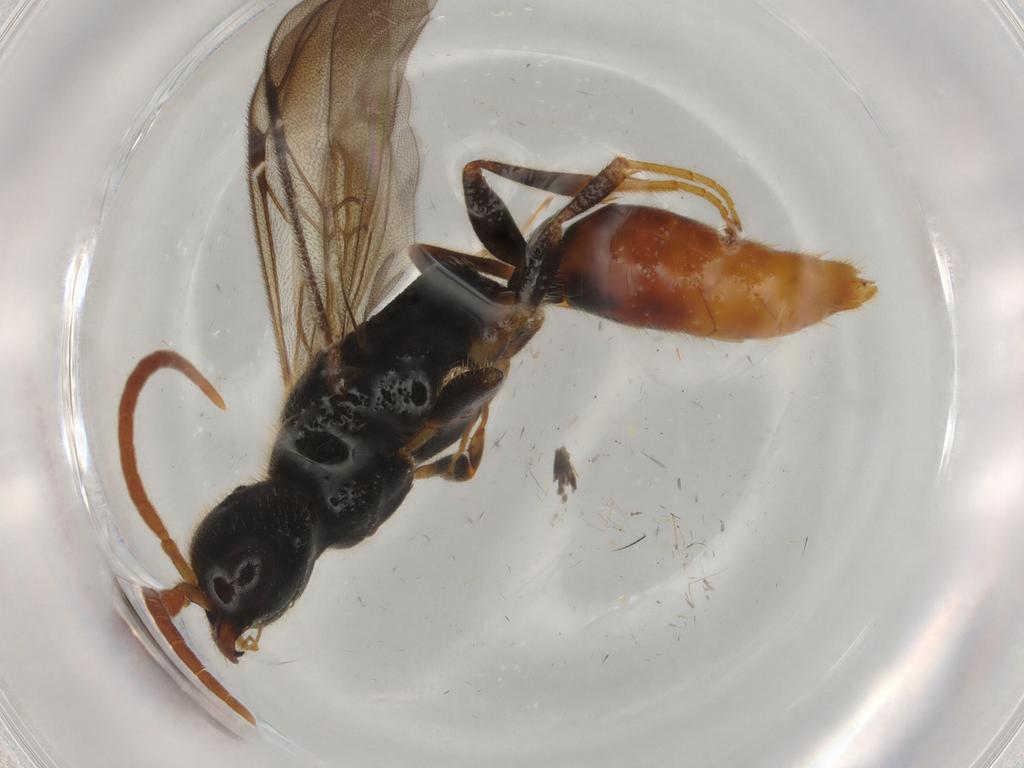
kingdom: Animalia
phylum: Arthropoda
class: Insecta
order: Hymenoptera
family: Bethylidae
